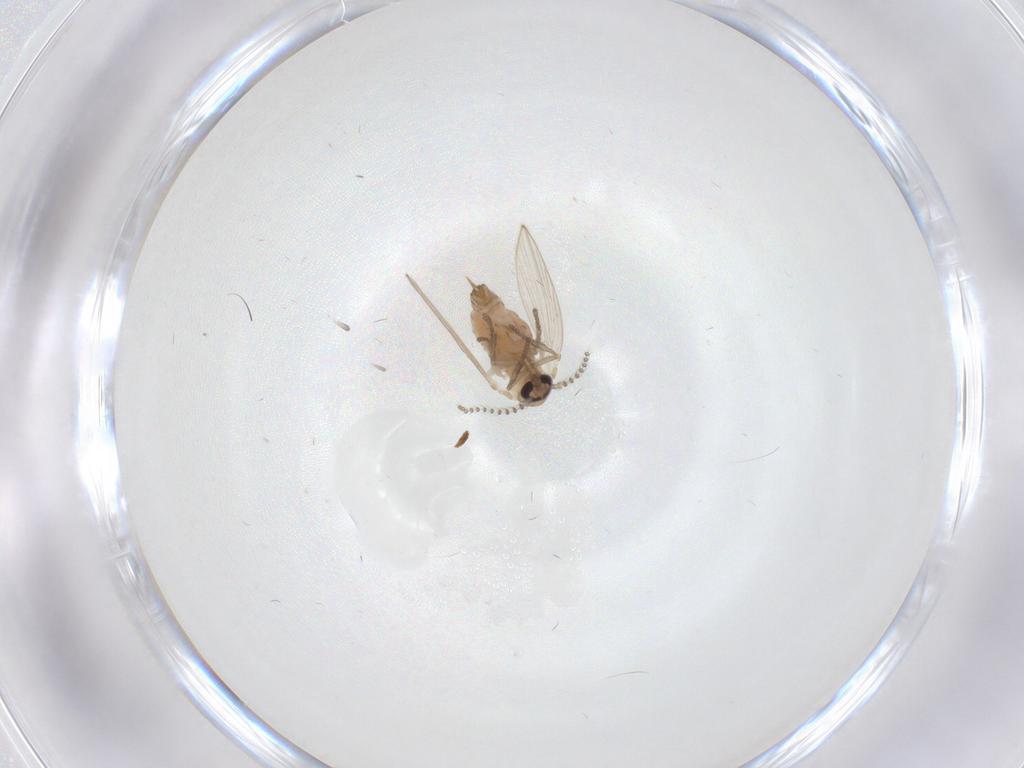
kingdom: Animalia
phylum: Arthropoda
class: Insecta
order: Diptera
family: Psychodidae
